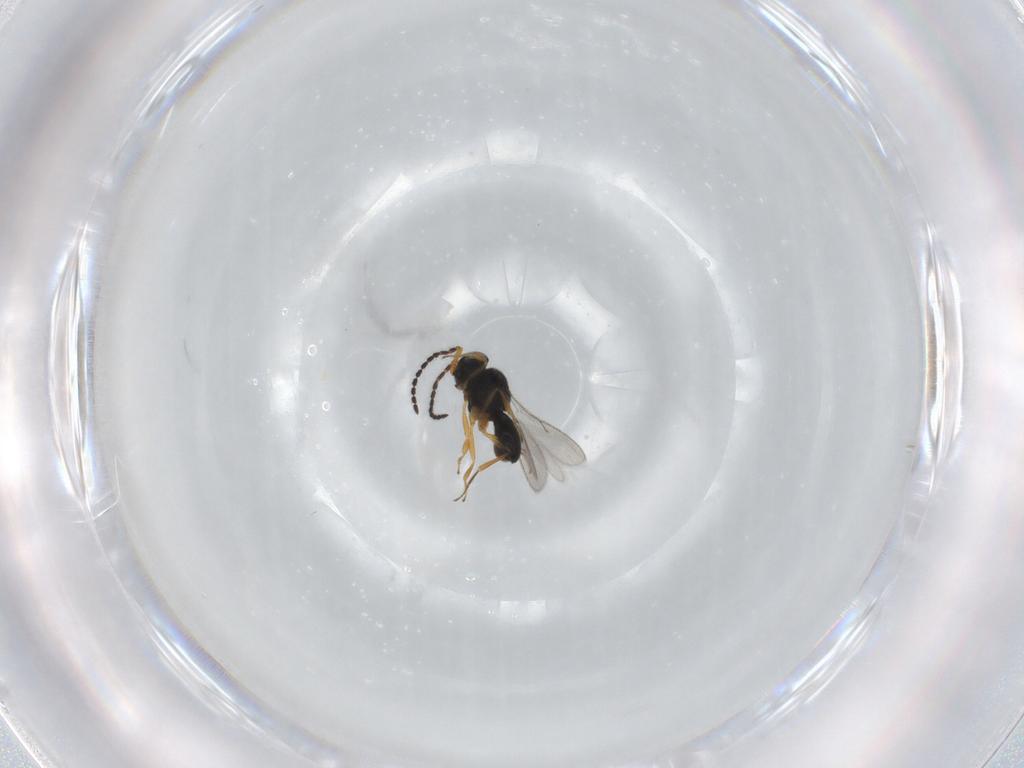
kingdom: Animalia
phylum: Arthropoda
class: Insecta
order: Hymenoptera
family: Scelionidae
